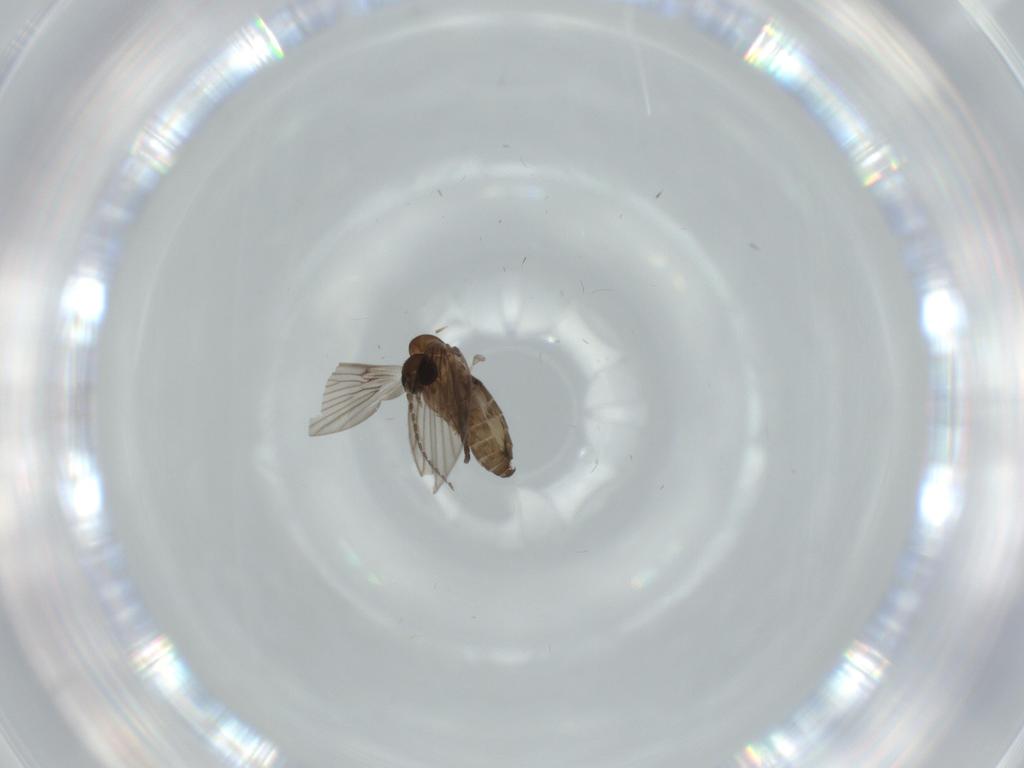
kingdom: Animalia
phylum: Arthropoda
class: Insecta
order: Diptera
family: Psychodidae
